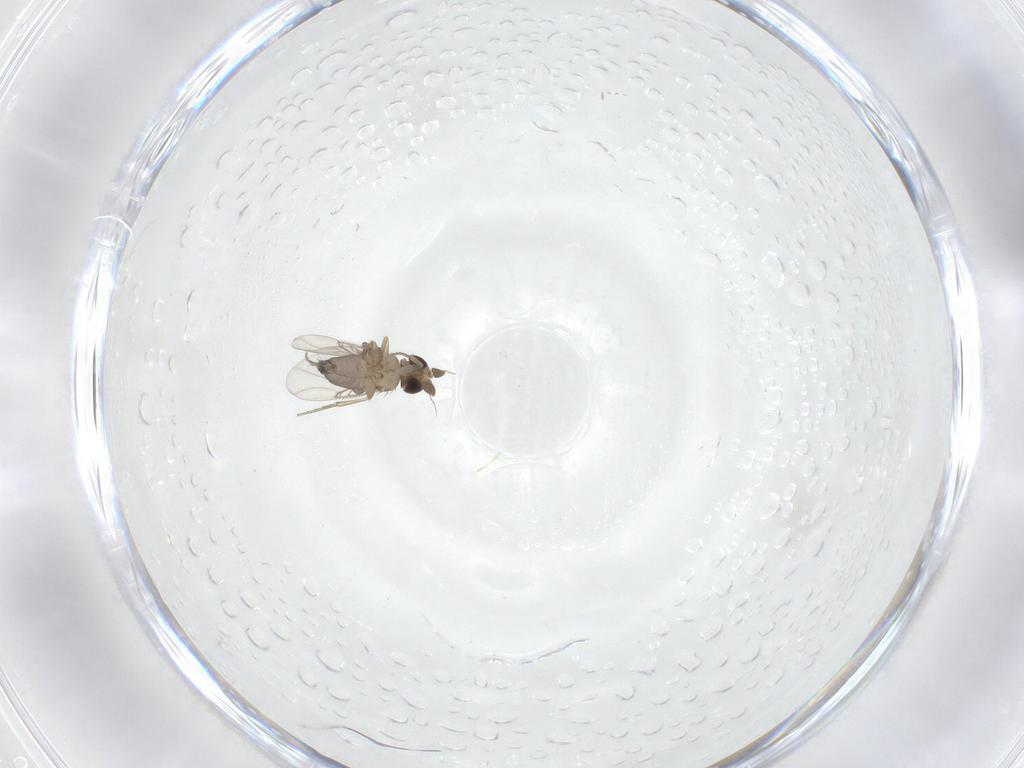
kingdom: Animalia
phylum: Arthropoda
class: Insecta
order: Diptera
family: Phoridae
